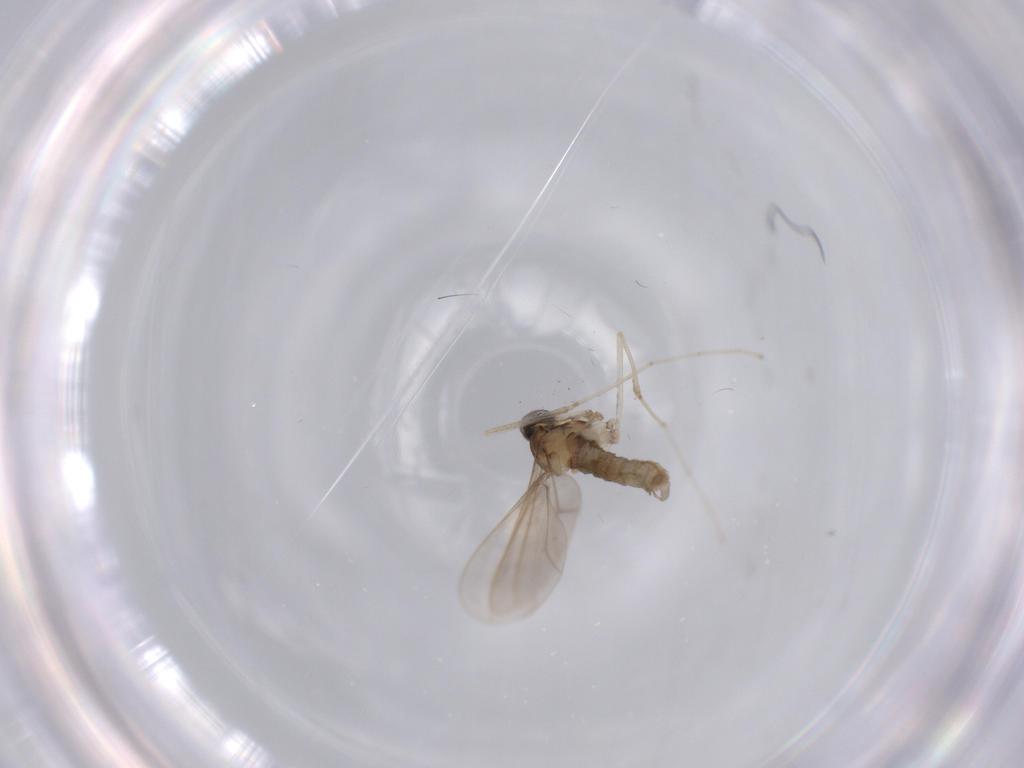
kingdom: Animalia
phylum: Arthropoda
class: Insecta
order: Diptera
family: Cecidomyiidae
